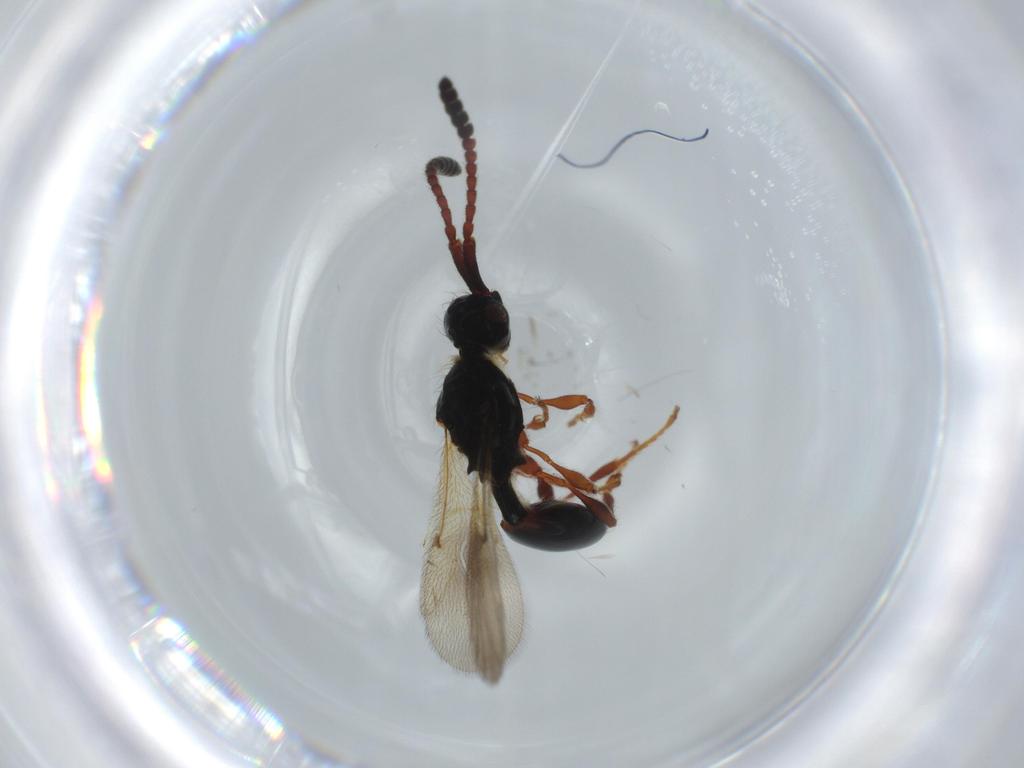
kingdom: Animalia
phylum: Arthropoda
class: Insecta
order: Hymenoptera
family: Diapriidae
